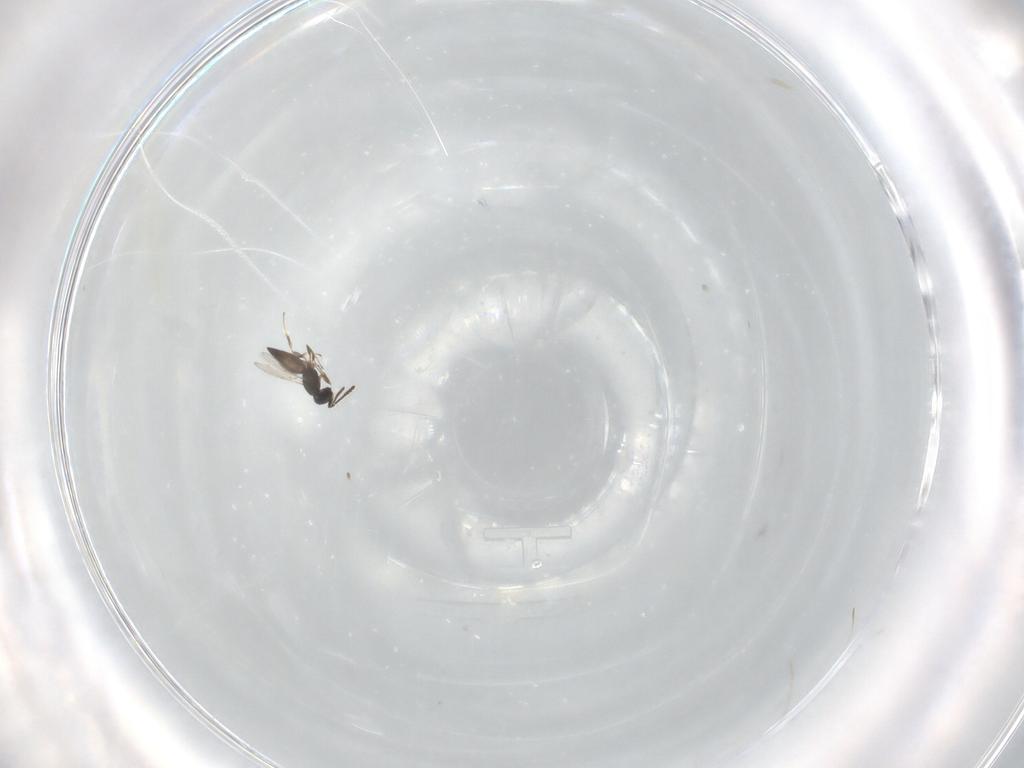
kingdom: Animalia
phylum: Arthropoda
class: Insecta
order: Hymenoptera
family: Scelionidae
